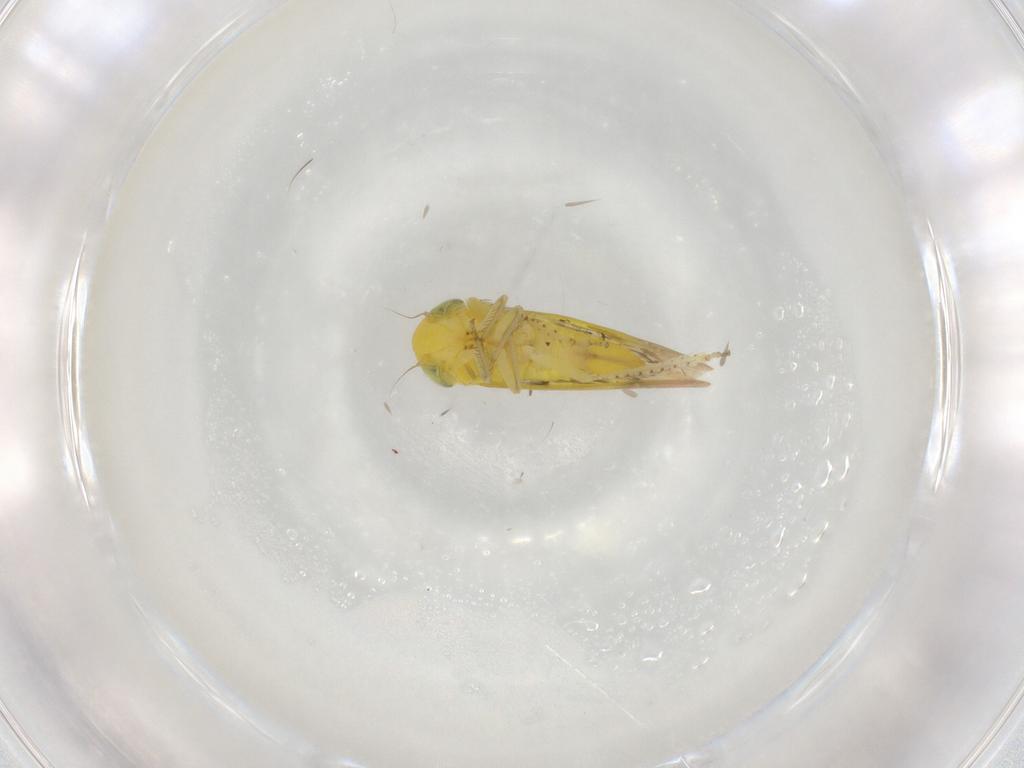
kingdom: Animalia
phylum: Arthropoda
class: Insecta
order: Hemiptera
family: Cicadellidae
